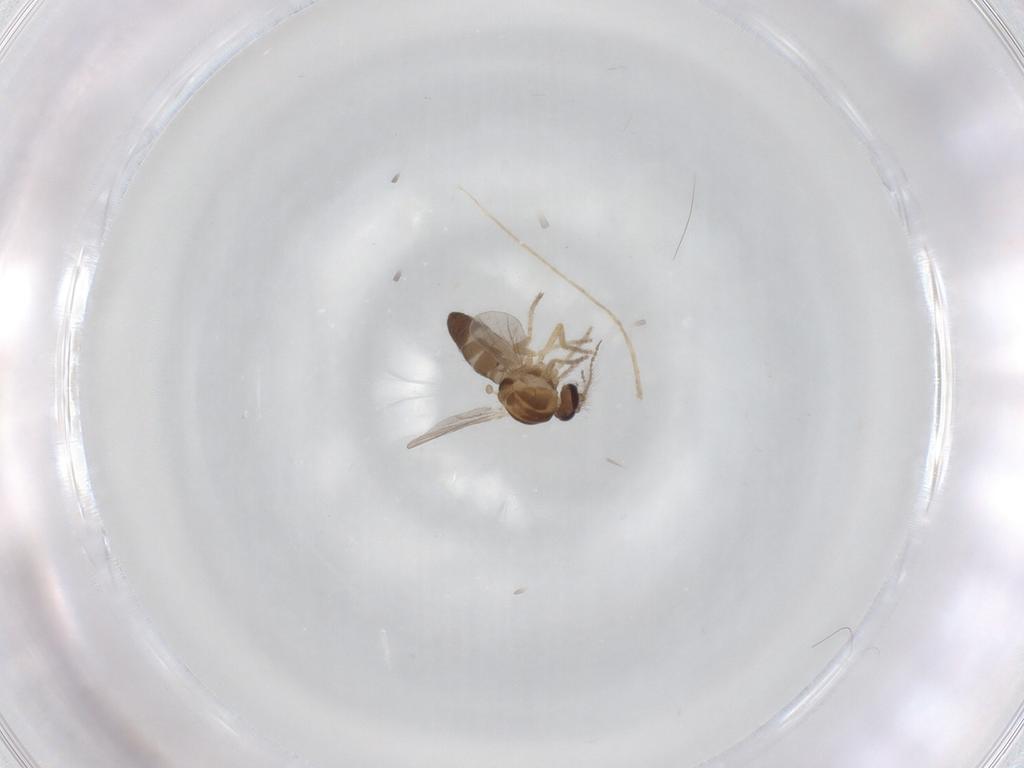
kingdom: Animalia
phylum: Arthropoda
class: Insecta
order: Diptera
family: Ceratopogonidae
